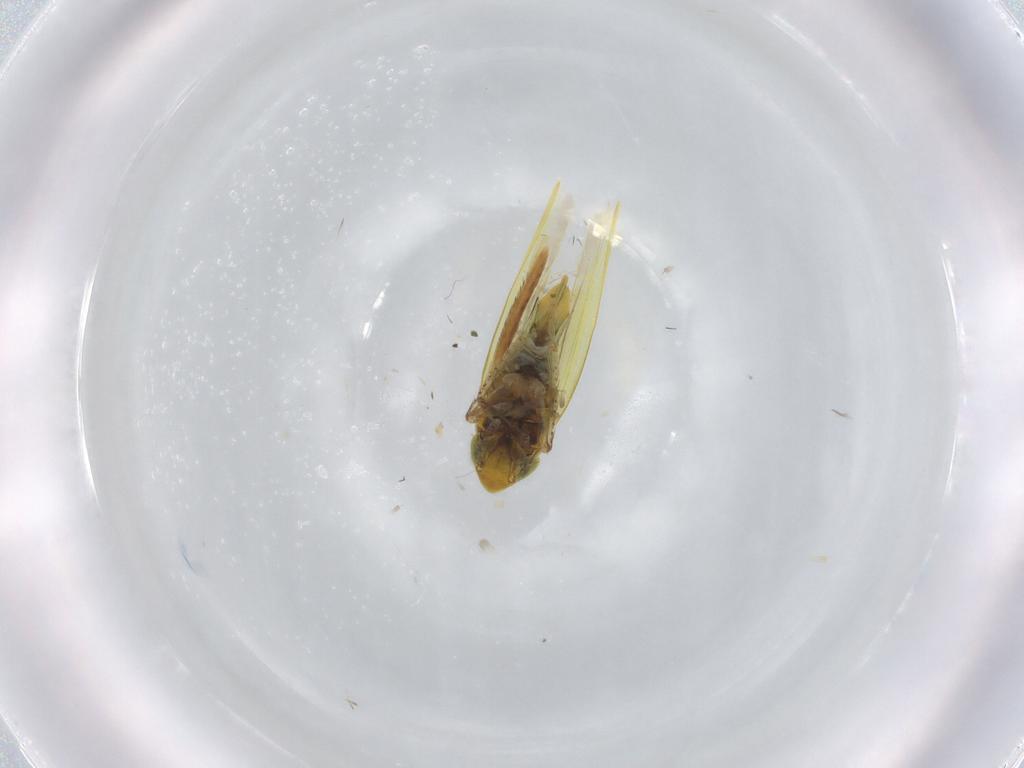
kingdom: Animalia
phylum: Arthropoda
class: Insecta
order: Hemiptera
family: Cicadellidae
